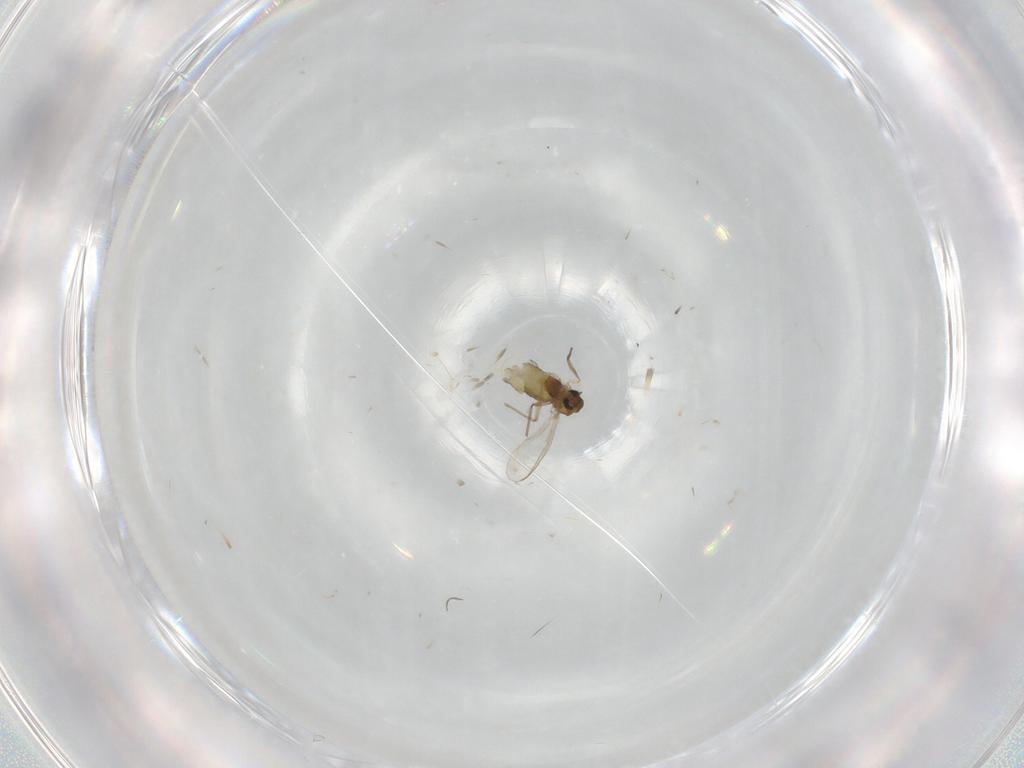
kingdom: Animalia
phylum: Arthropoda
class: Insecta
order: Diptera
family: Chironomidae
